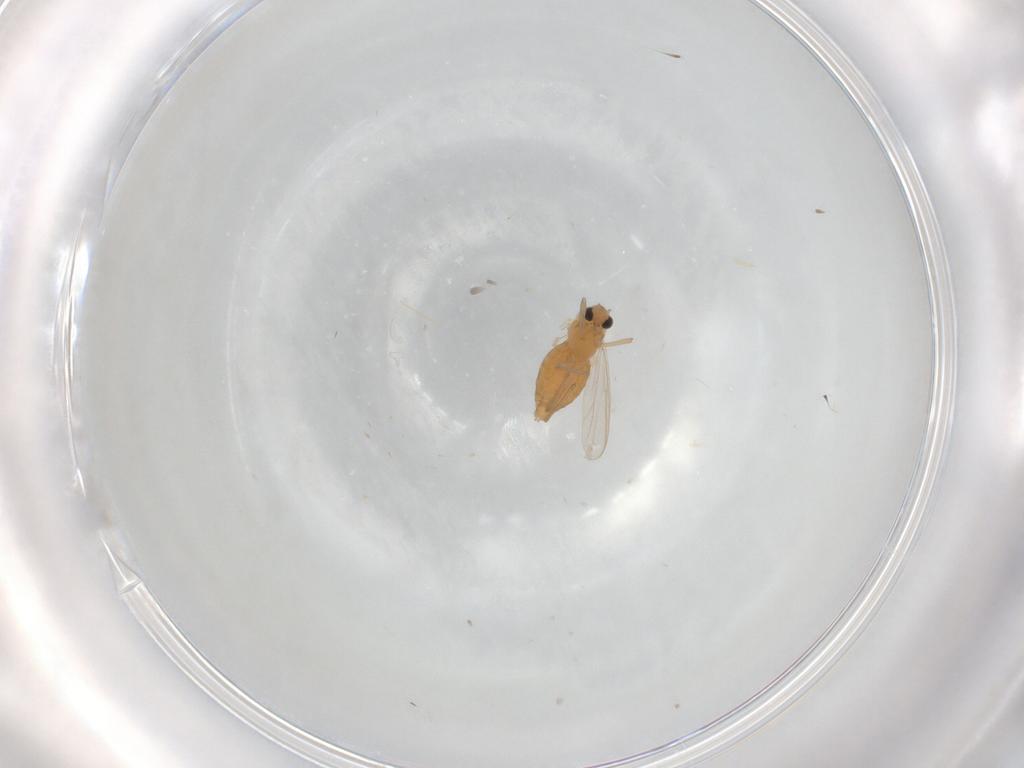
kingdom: Animalia
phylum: Arthropoda
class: Insecta
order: Diptera
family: Chironomidae
